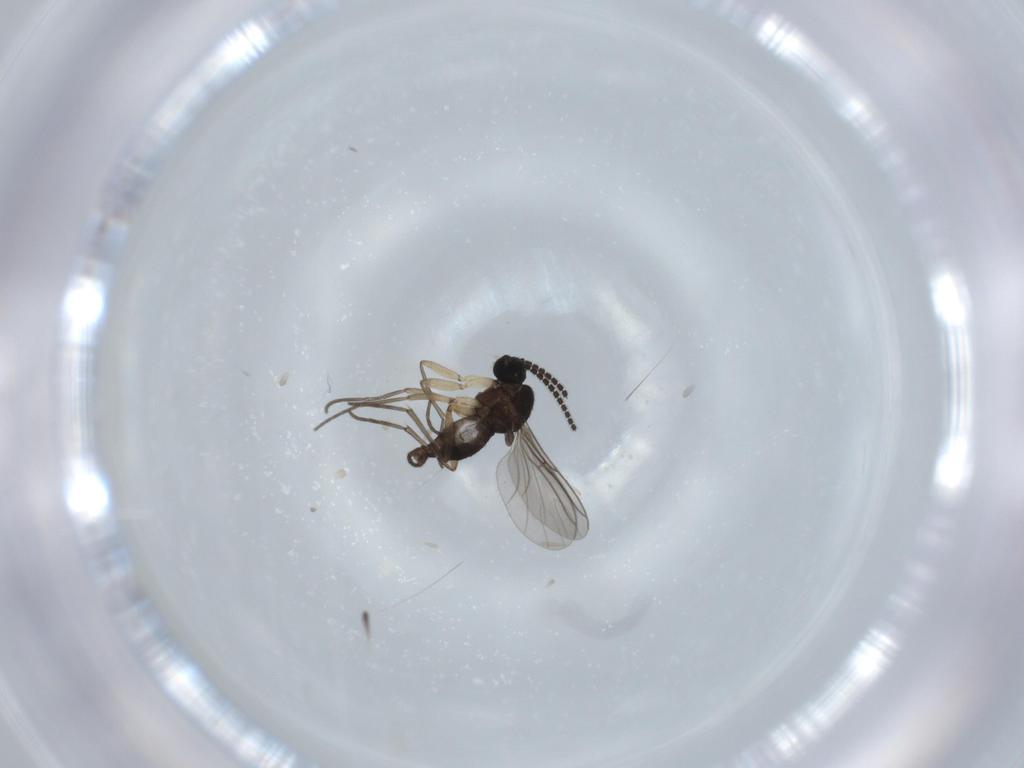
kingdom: Animalia
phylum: Arthropoda
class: Insecta
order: Diptera
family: Sciaridae
